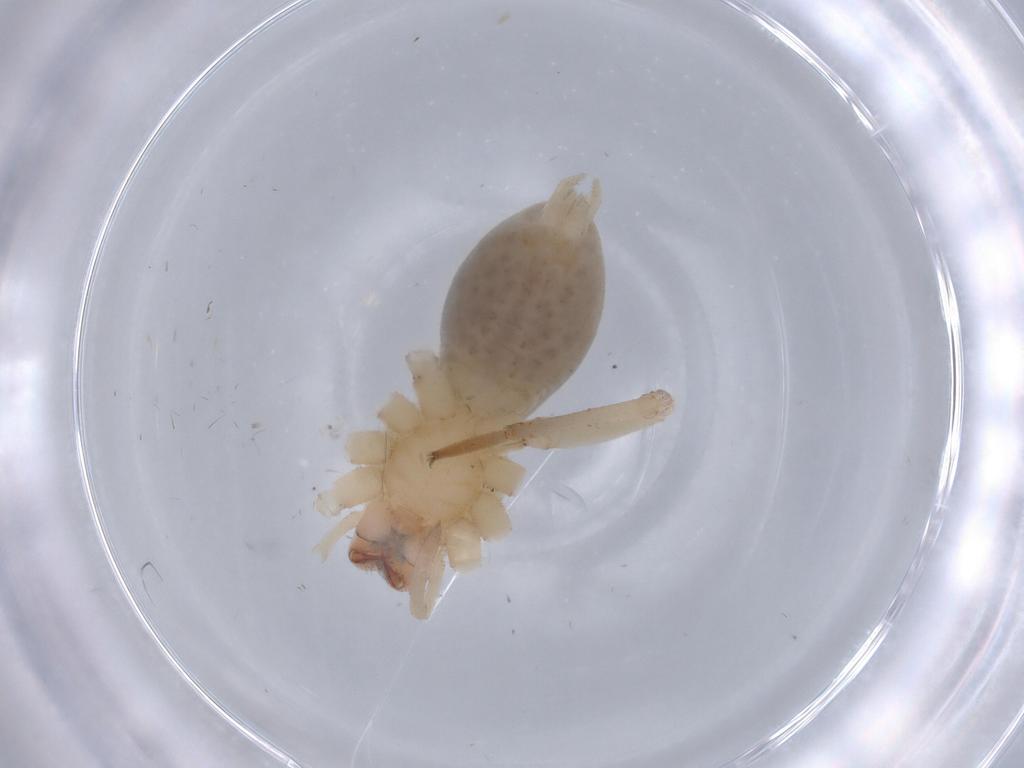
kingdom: Animalia
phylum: Arthropoda
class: Arachnida
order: Araneae
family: Cheiracanthiidae
